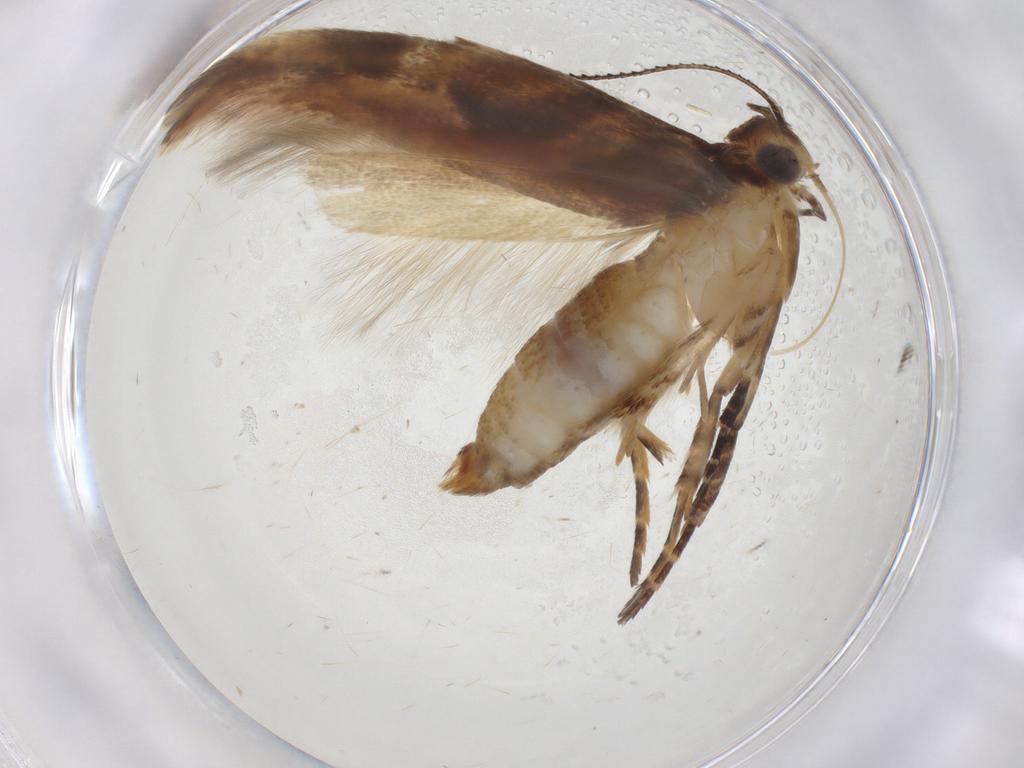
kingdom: Animalia
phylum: Arthropoda
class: Insecta
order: Lepidoptera
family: Gelechiidae
